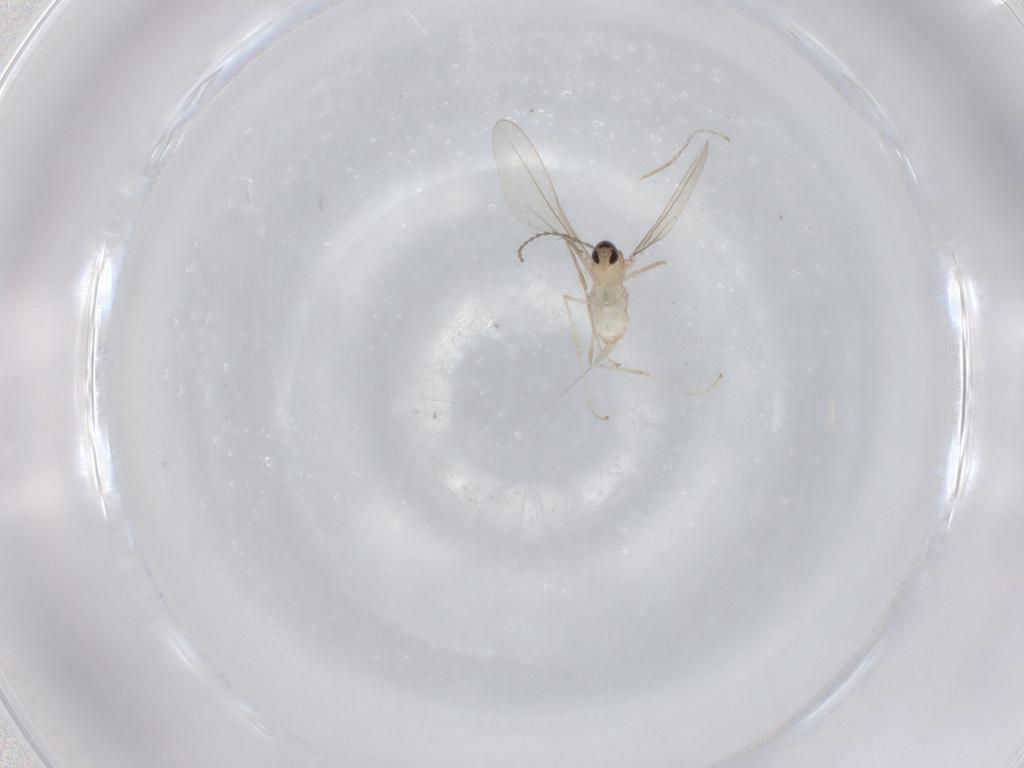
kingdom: Animalia
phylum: Arthropoda
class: Insecta
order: Diptera
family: Cecidomyiidae
